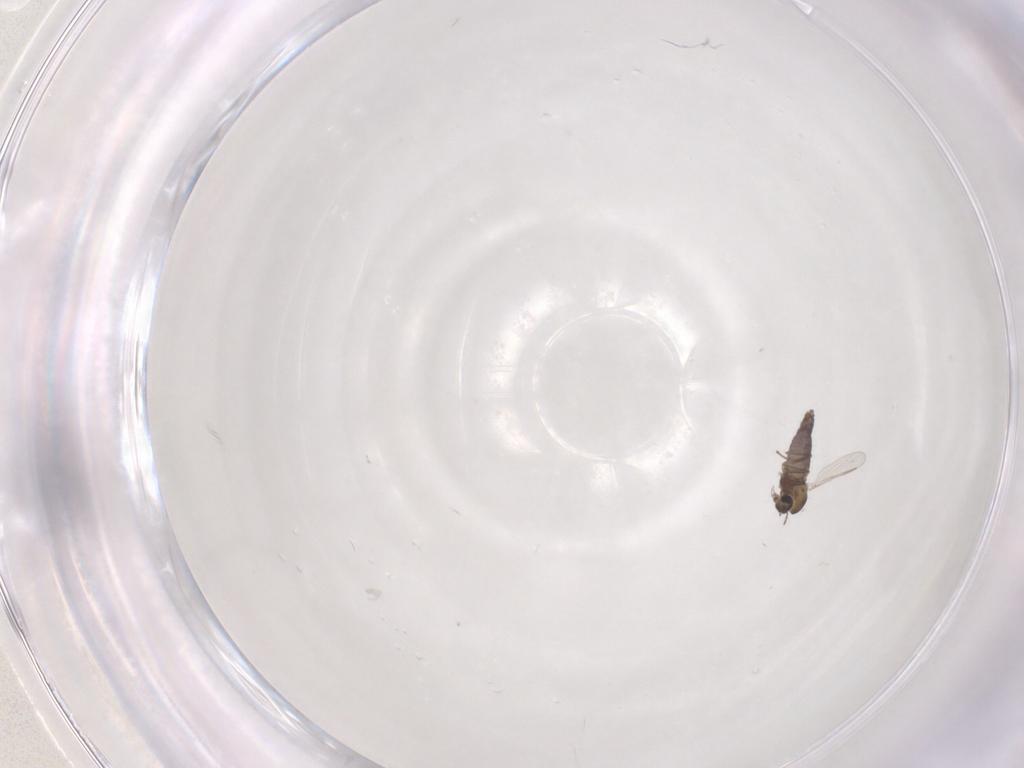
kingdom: Animalia
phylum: Arthropoda
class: Insecta
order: Diptera
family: Chironomidae
